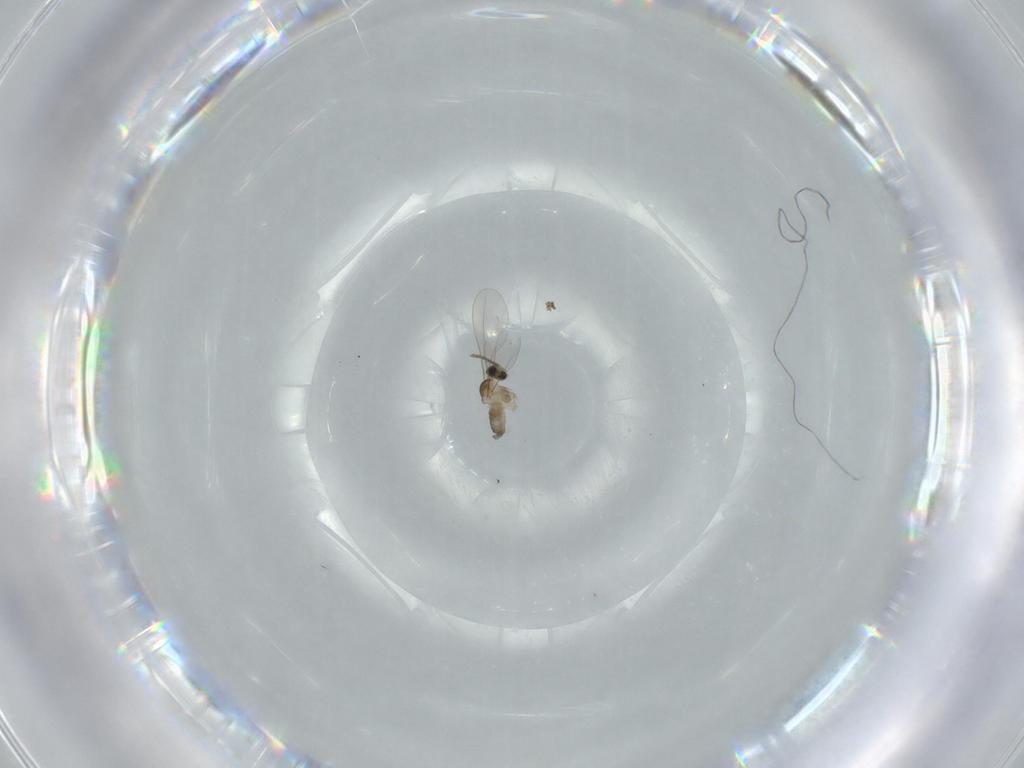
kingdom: Animalia
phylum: Arthropoda
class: Insecta
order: Diptera
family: Cecidomyiidae
